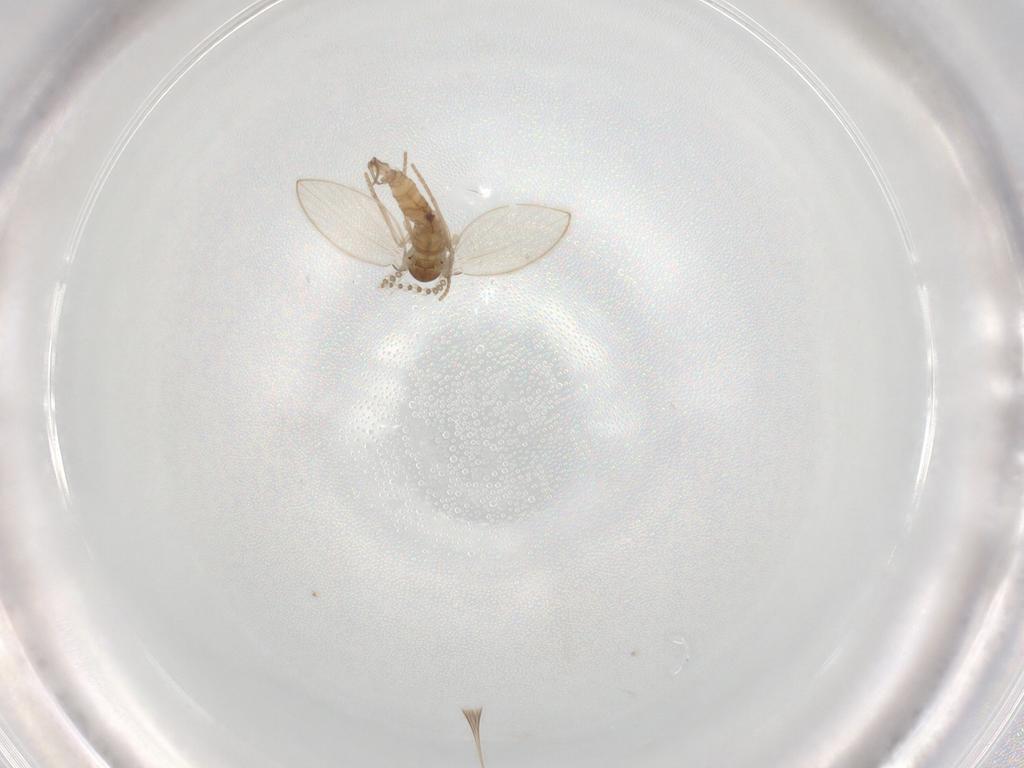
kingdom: Animalia
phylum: Arthropoda
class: Insecta
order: Diptera
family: Psychodidae
